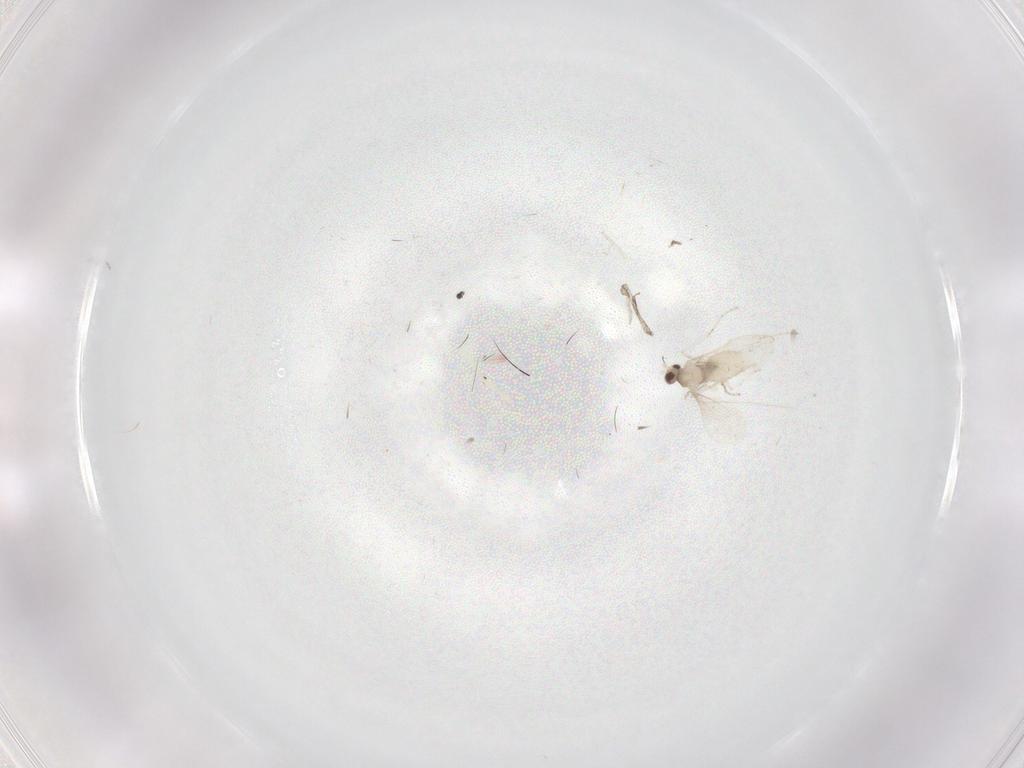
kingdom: Animalia
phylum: Arthropoda
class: Insecta
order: Diptera
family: Cecidomyiidae
